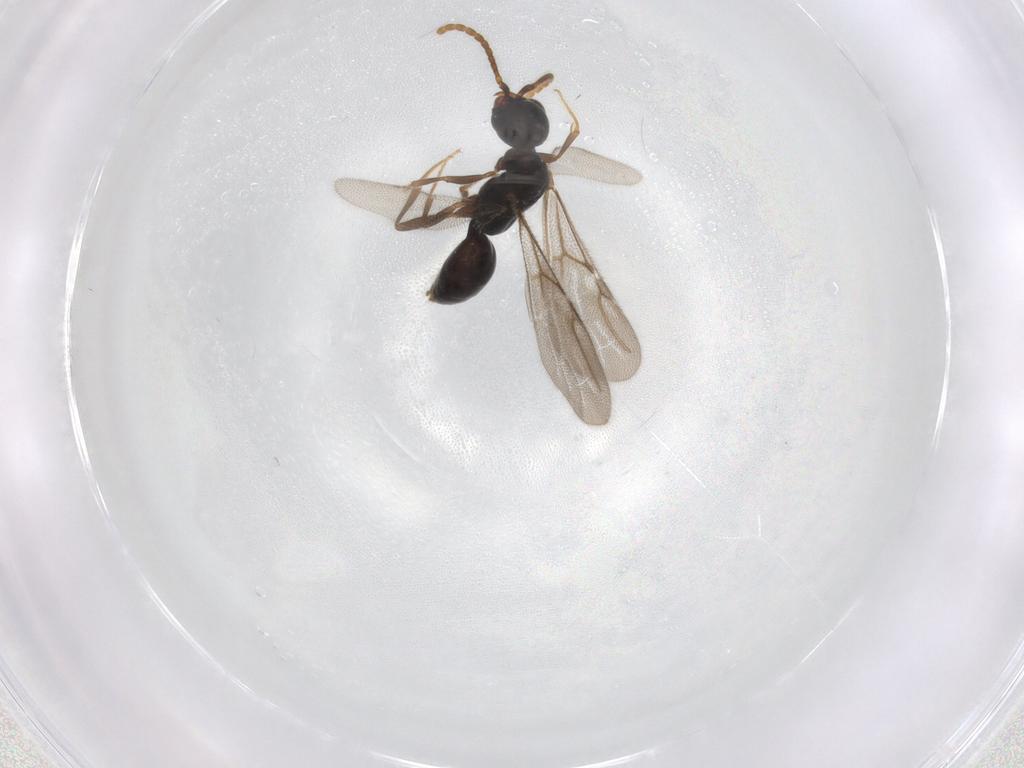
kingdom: Animalia
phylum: Arthropoda
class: Insecta
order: Hymenoptera
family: Bethylidae
